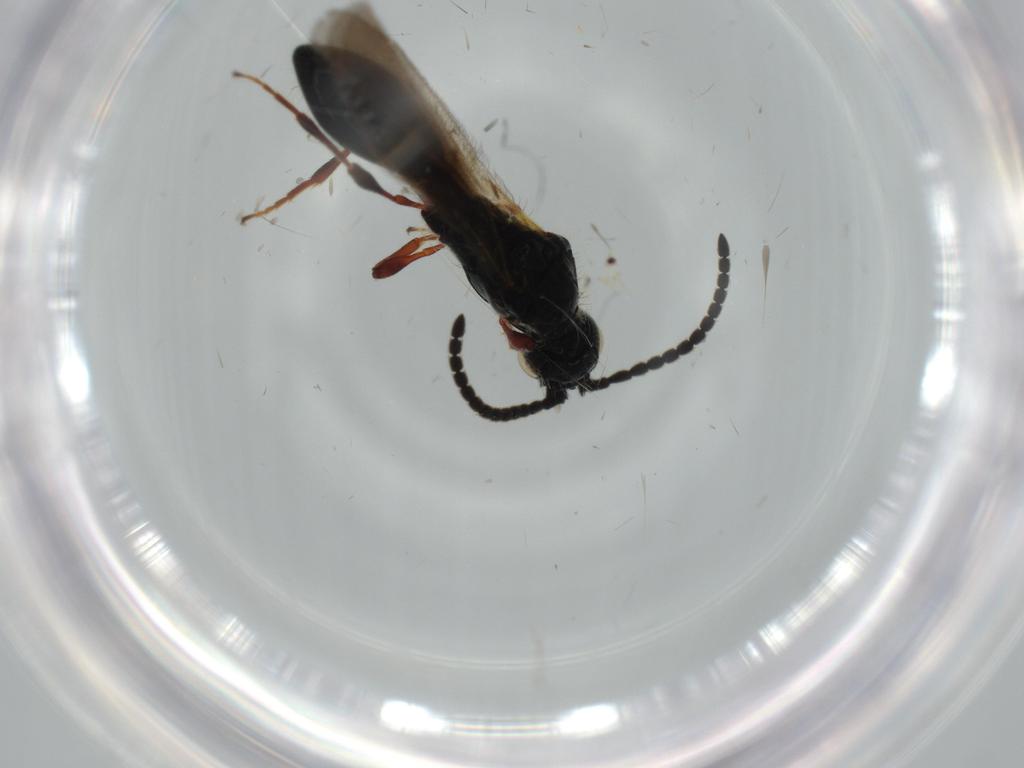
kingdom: Animalia
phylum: Arthropoda
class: Insecta
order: Hymenoptera
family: Diapriidae
